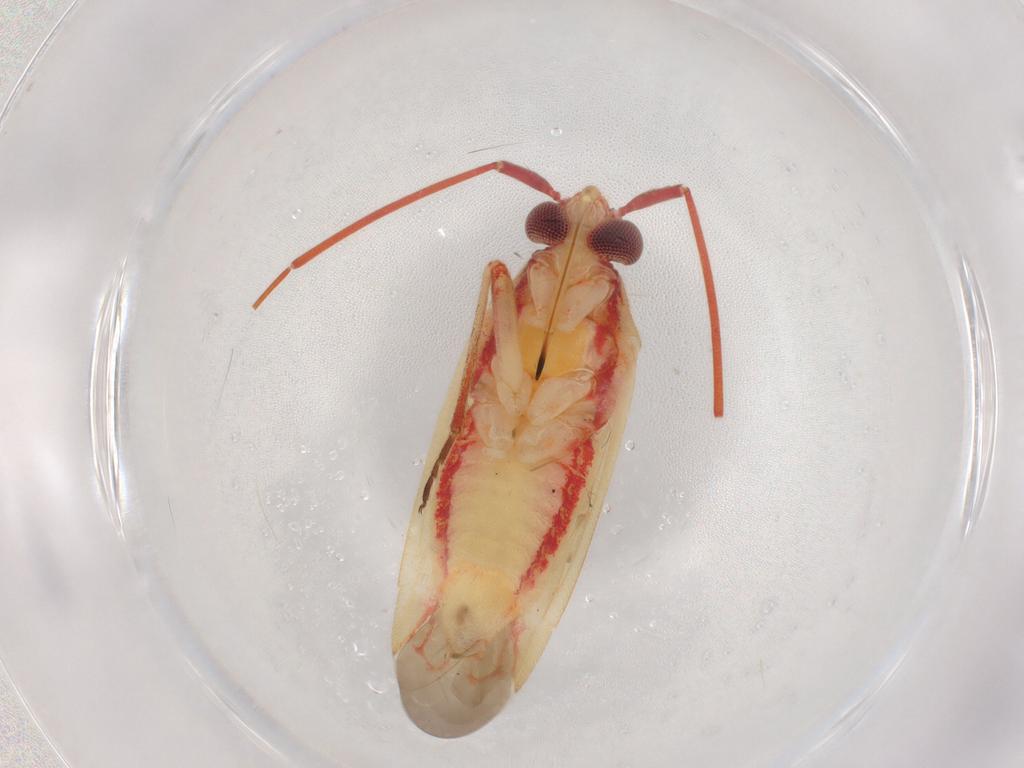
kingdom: Animalia
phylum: Arthropoda
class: Insecta
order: Hemiptera
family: Miridae
